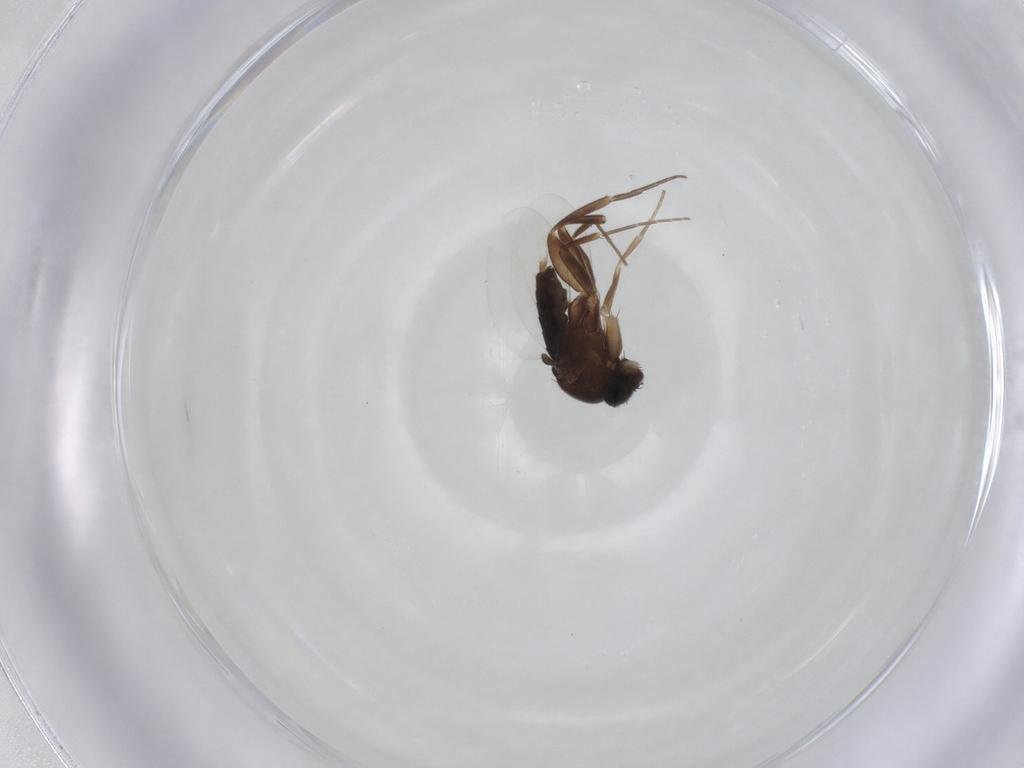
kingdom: Animalia
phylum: Arthropoda
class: Insecta
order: Diptera
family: Phoridae
